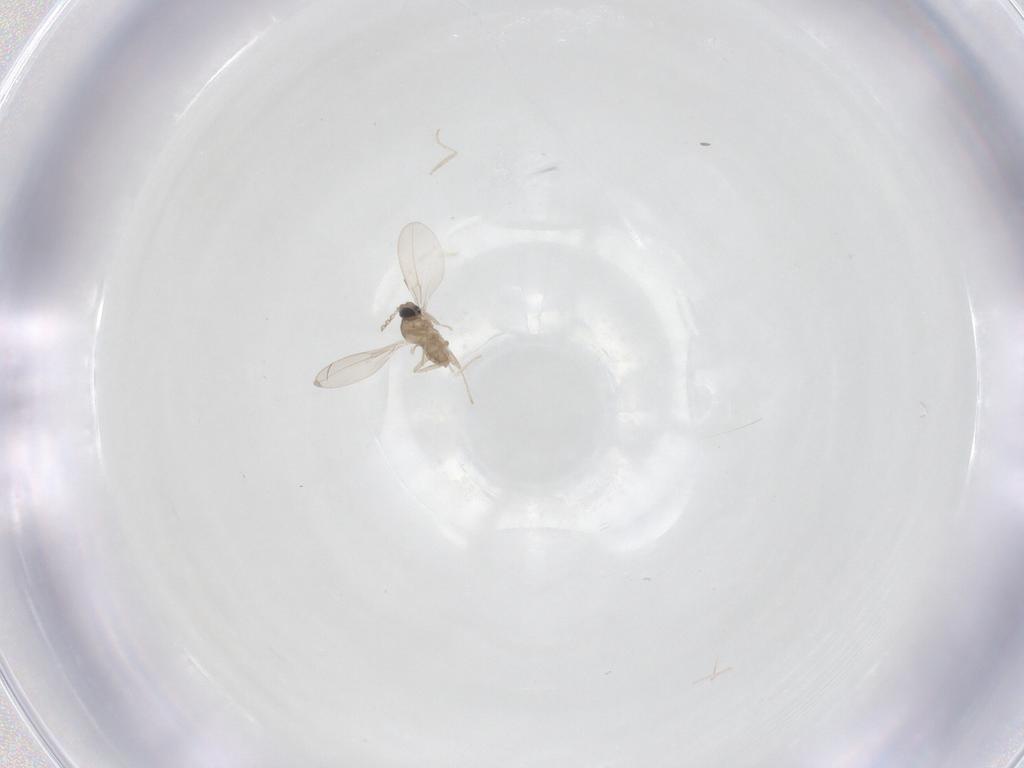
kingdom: Animalia
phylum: Arthropoda
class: Insecta
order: Diptera
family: Cecidomyiidae
